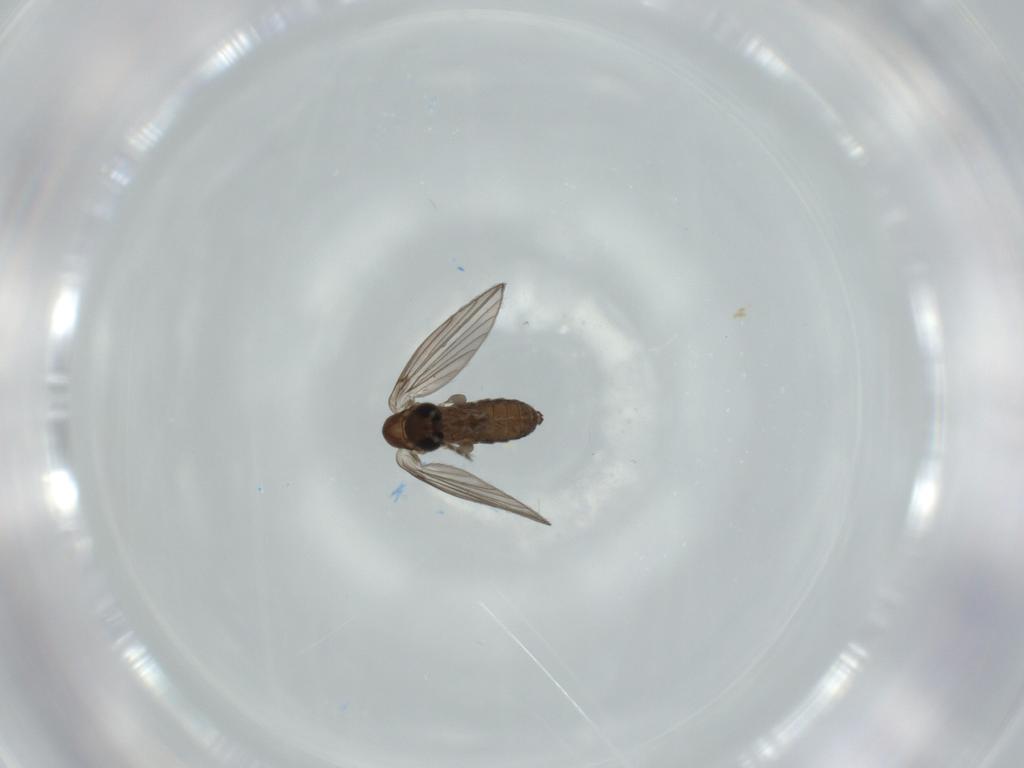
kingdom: Animalia
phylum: Arthropoda
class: Insecta
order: Diptera
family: Psychodidae
